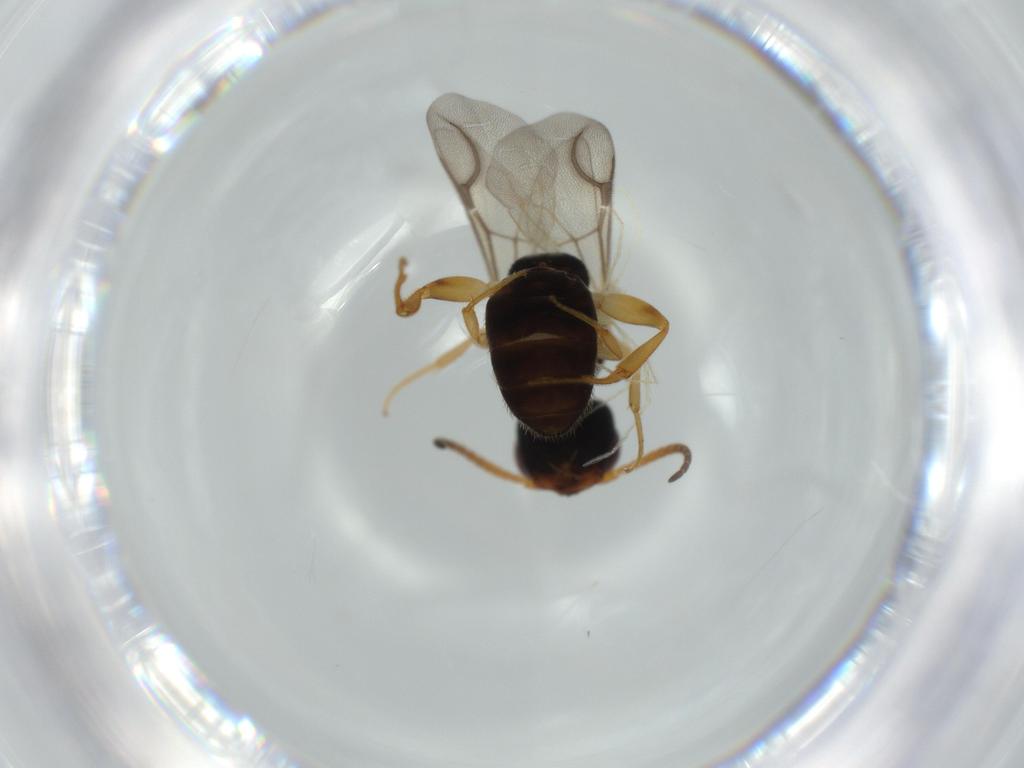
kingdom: Animalia
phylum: Arthropoda
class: Insecta
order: Hymenoptera
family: Bethylidae
